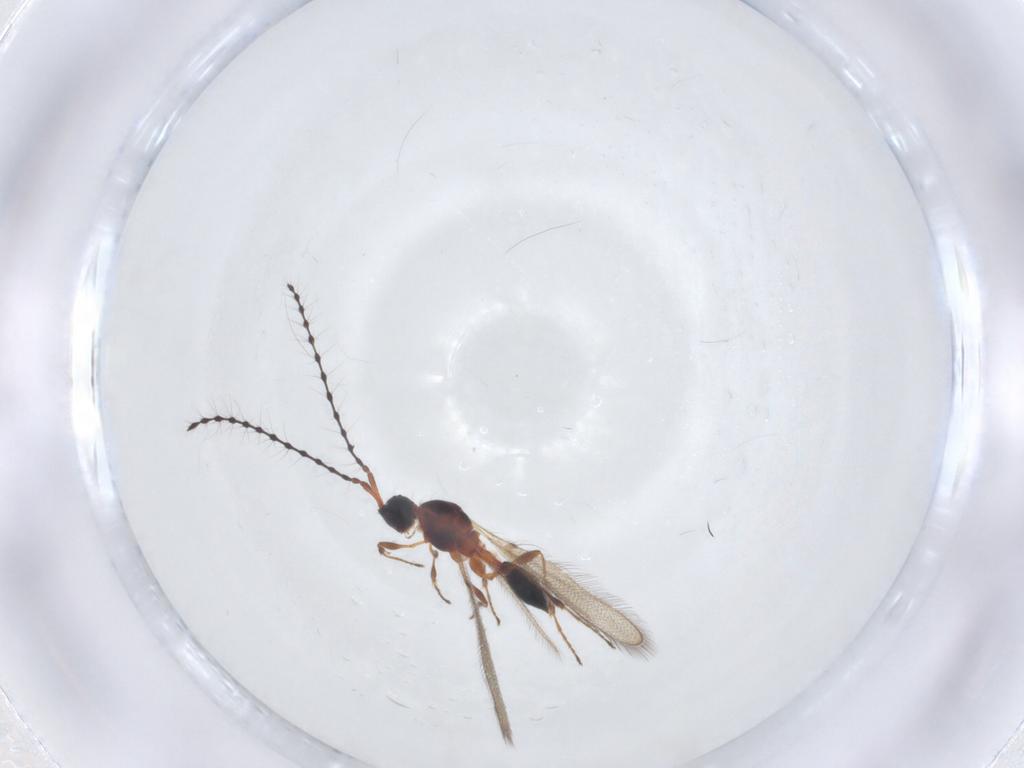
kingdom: Animalia
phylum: Arthropoda
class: Insecta
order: Hymenoptera
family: Diapriidae
